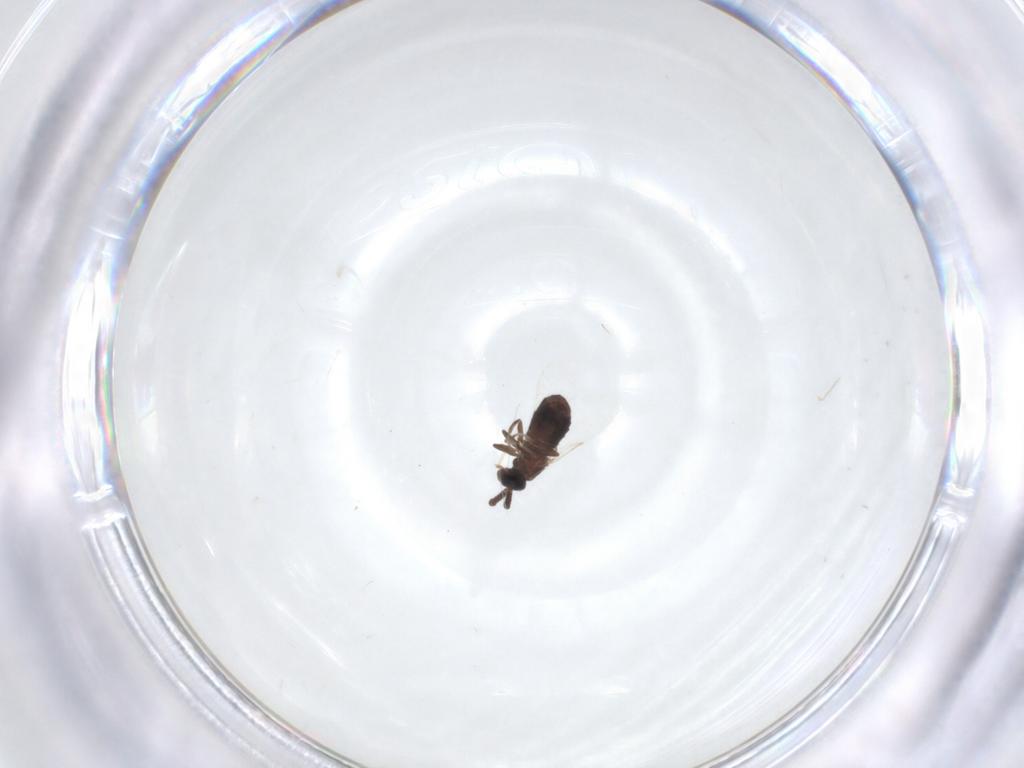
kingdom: Animalia
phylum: Arthropoda
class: Insecta
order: Diptera
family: Scatopsidae
